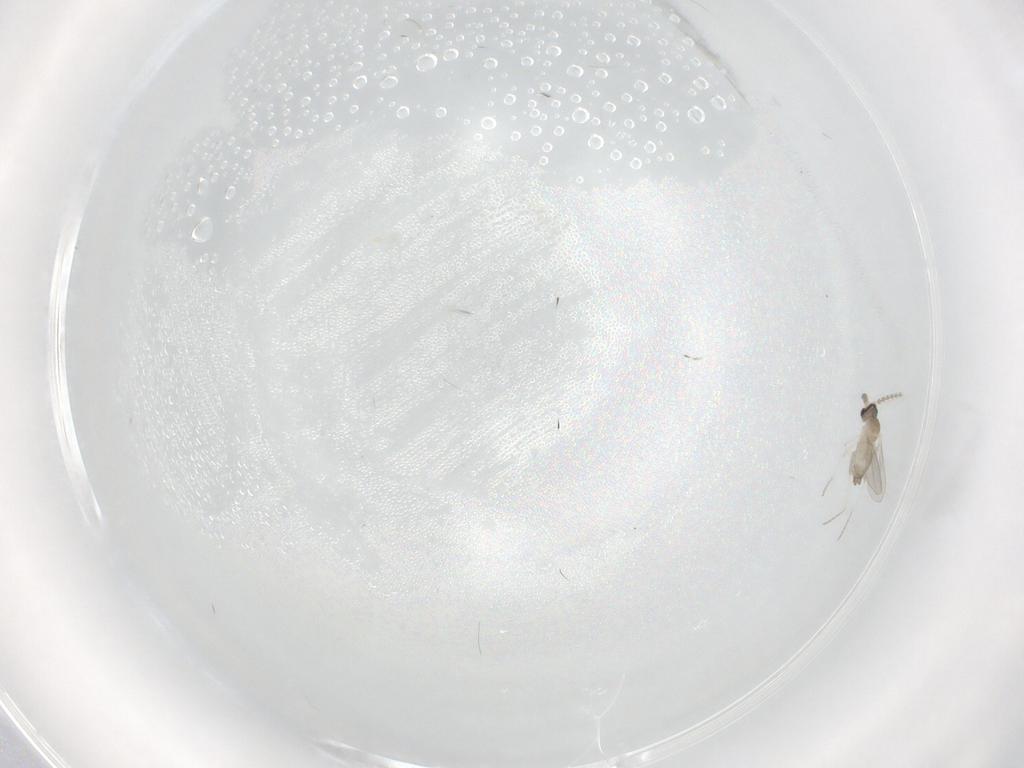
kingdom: Animalia
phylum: Arthropoda
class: Insecta
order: Diptera
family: Cecidomyiidae
